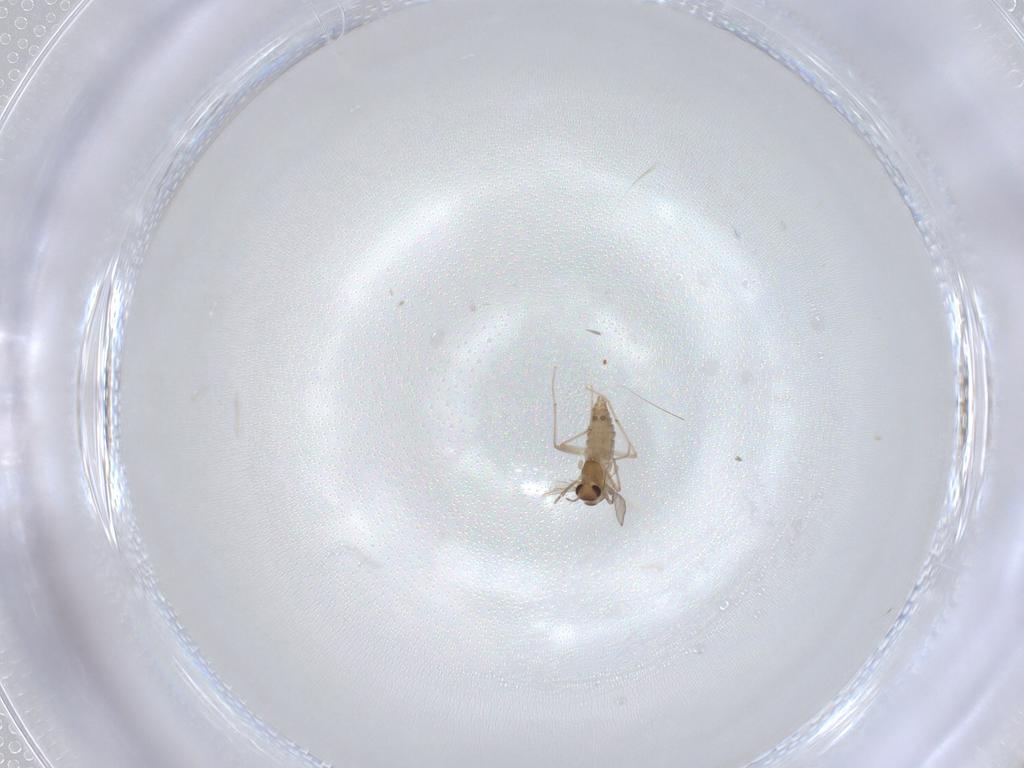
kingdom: Animalia
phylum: Arthropoda
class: Insecta
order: Diptera
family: Chironomidae
